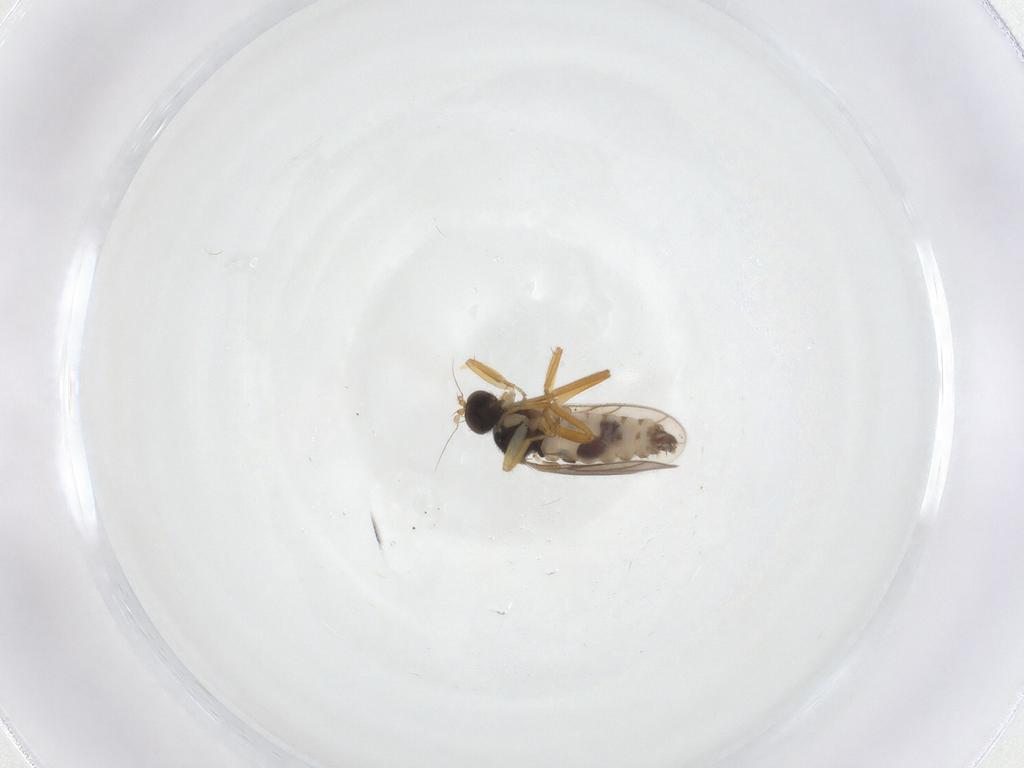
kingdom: Animalia
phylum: Arthropoda
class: Insecta
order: Diptera
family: Hybotidae
